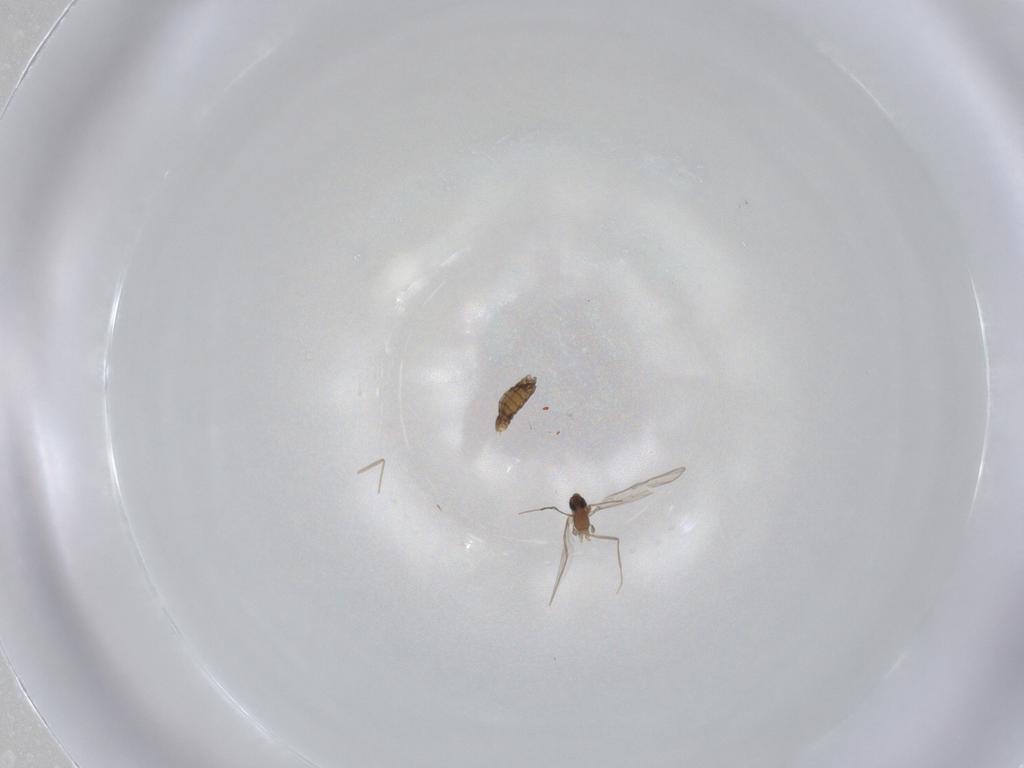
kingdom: Animalia
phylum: Arthropoda
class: Insecta
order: Diptera
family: Chironomidae
